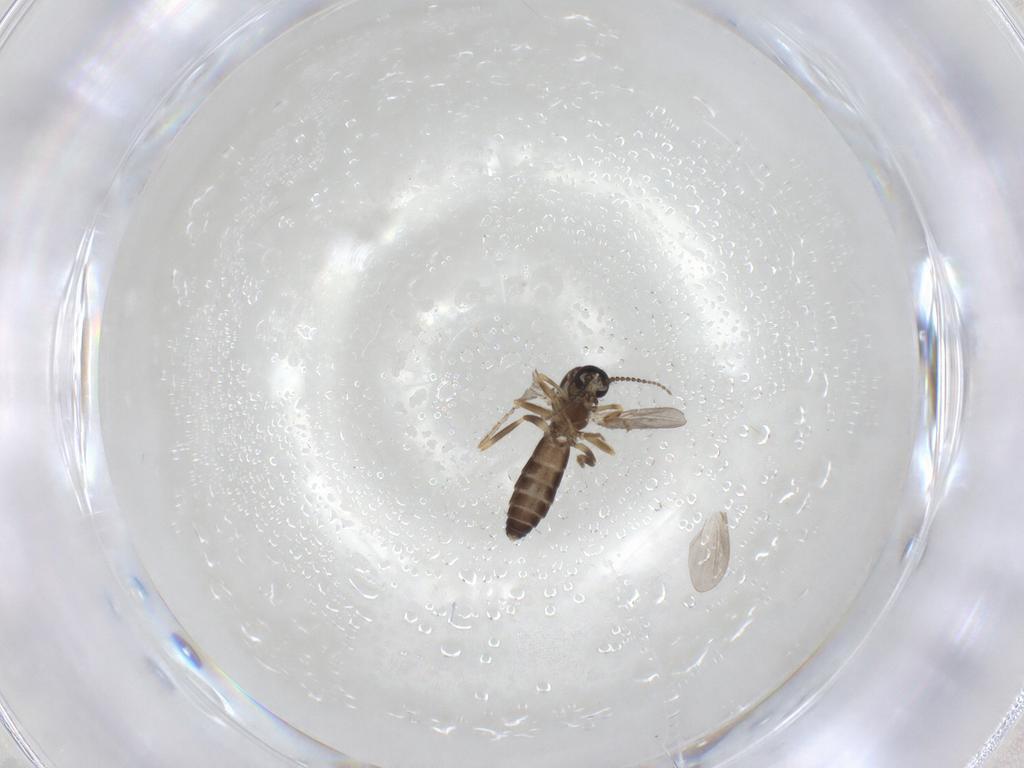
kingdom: Animalia
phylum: Arthropoda
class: Insecta
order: Diptera
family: Ceratopogonidae
